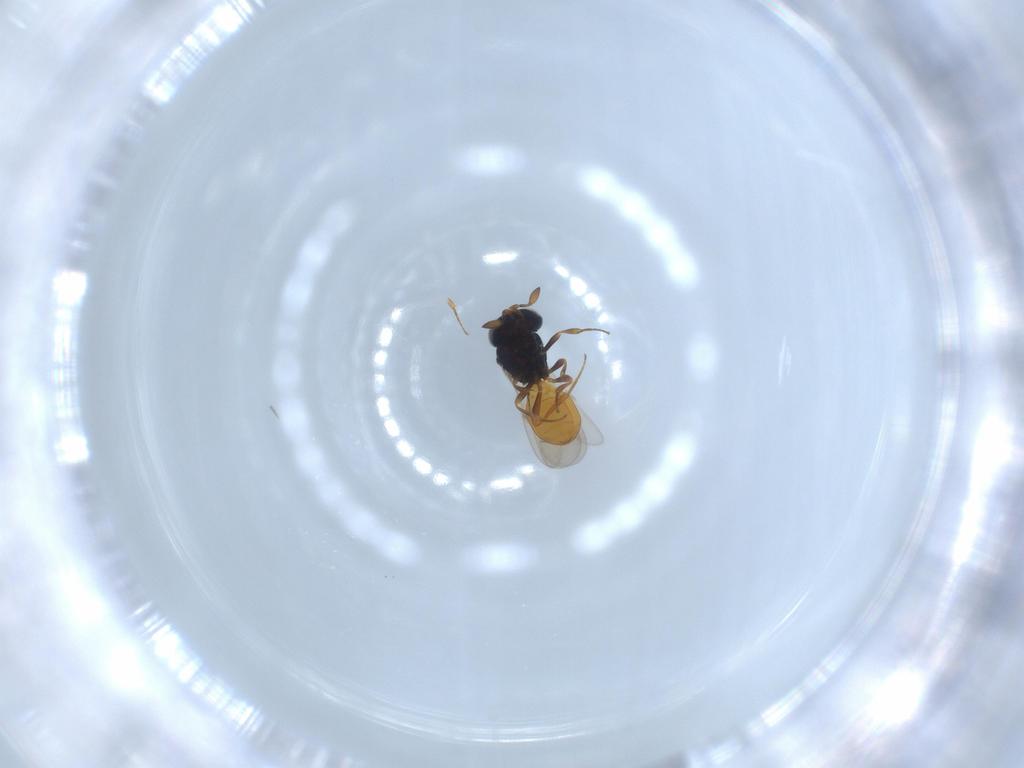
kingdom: Animalia
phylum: Arthropoda
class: Insecta
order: Hymenoptera
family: Scelionidae
